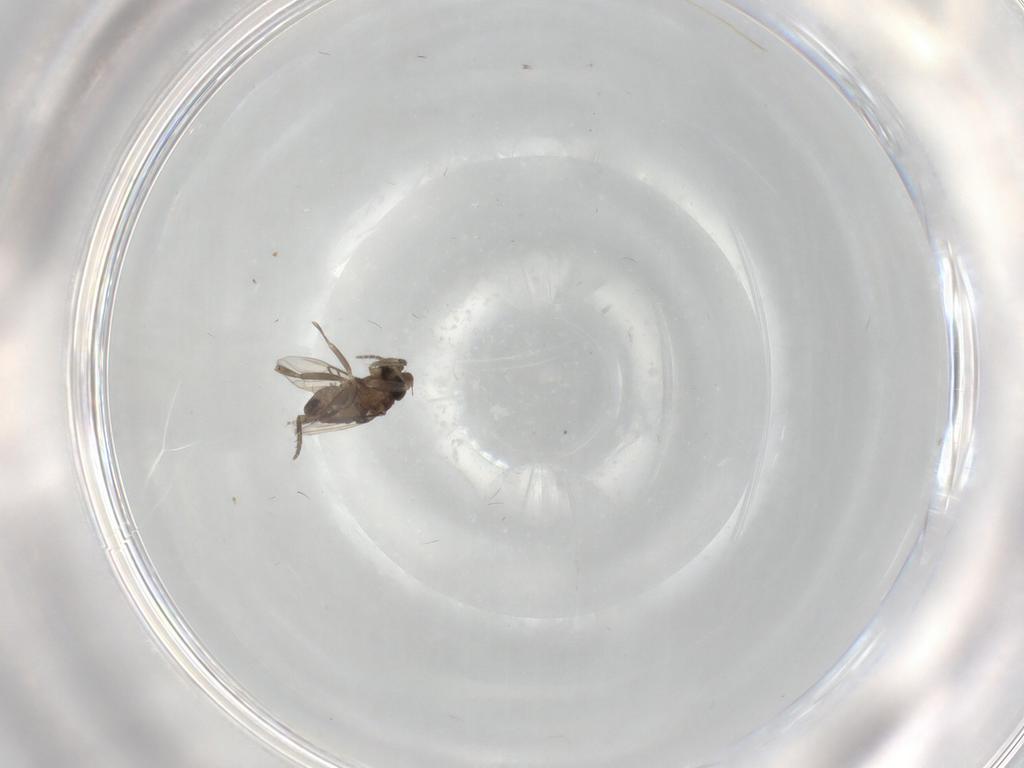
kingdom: Animalia
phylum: Arthropoda
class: Insecta
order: Diptera
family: Phoridae
